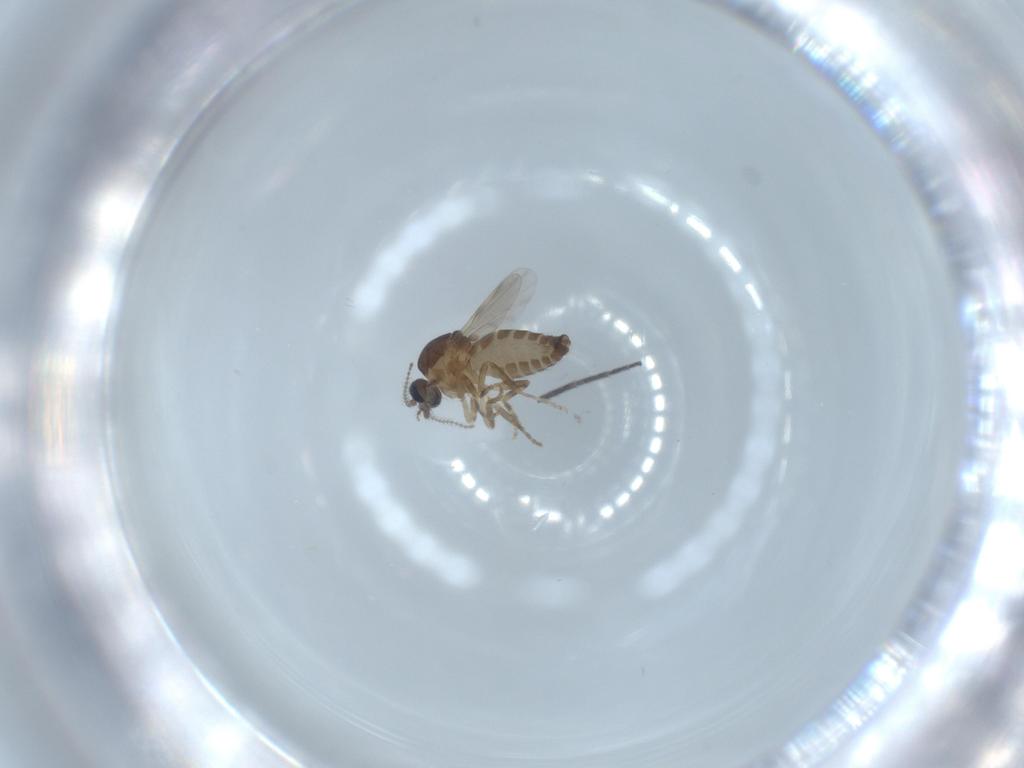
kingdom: Animalia
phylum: Arthropoda
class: Insecta
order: Diptera
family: Ceratopogonidae
